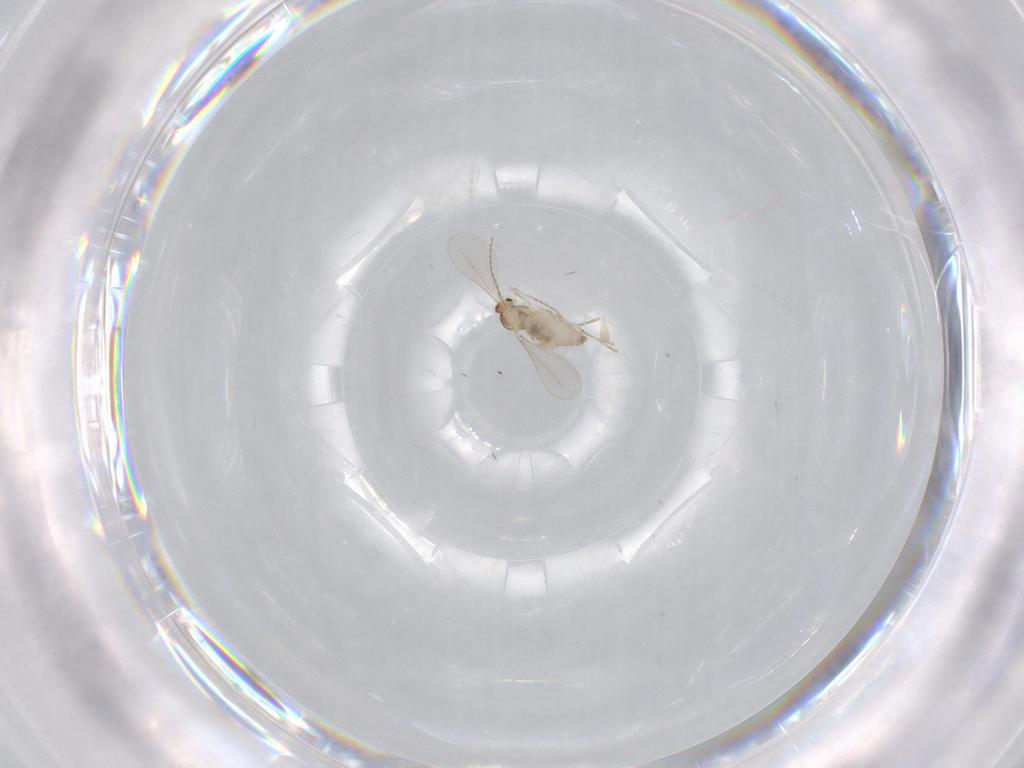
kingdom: Animalia
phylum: Arthropoda
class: Insecta
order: Diptera
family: Cecidomyiidae
